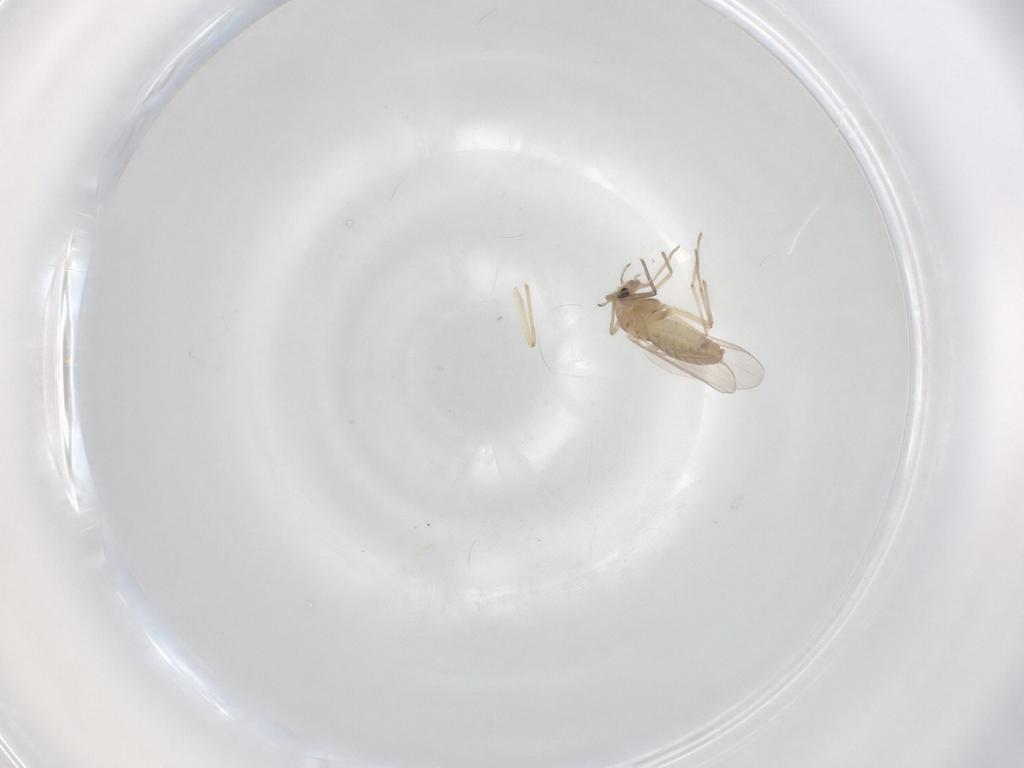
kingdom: Animalia
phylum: Arthropoda
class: Insecta
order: Diptera
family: Chironomidae
